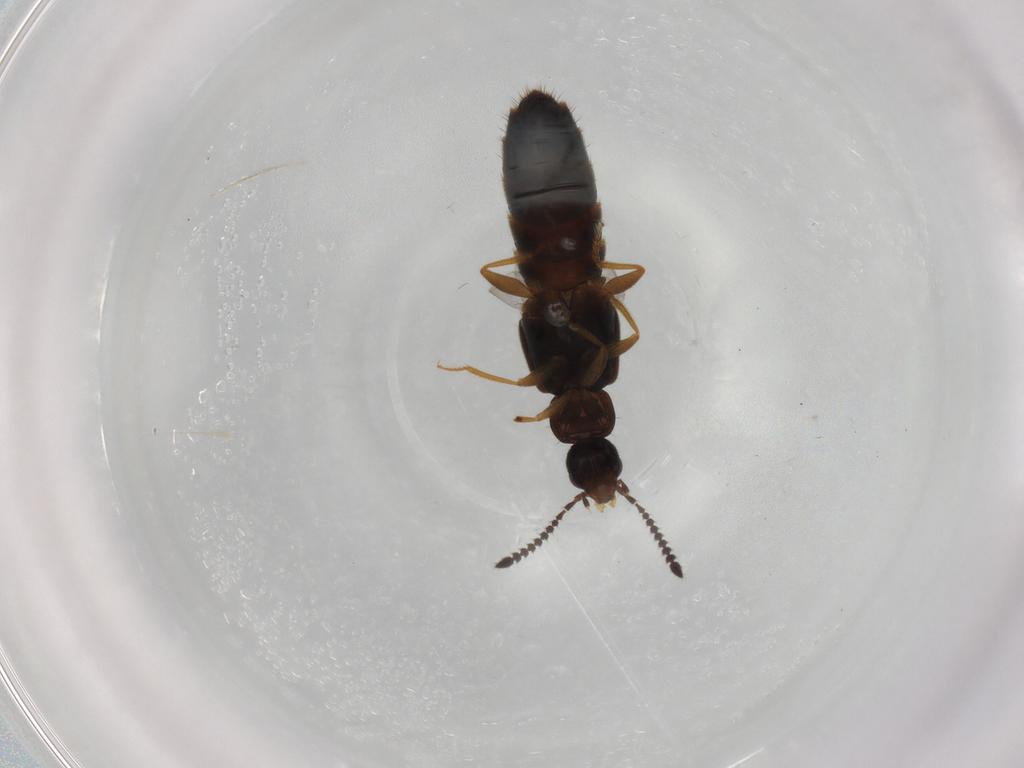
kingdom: Animalia
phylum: Arthropoda
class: Insecta
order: Coleoptera
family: Staphylinidae
